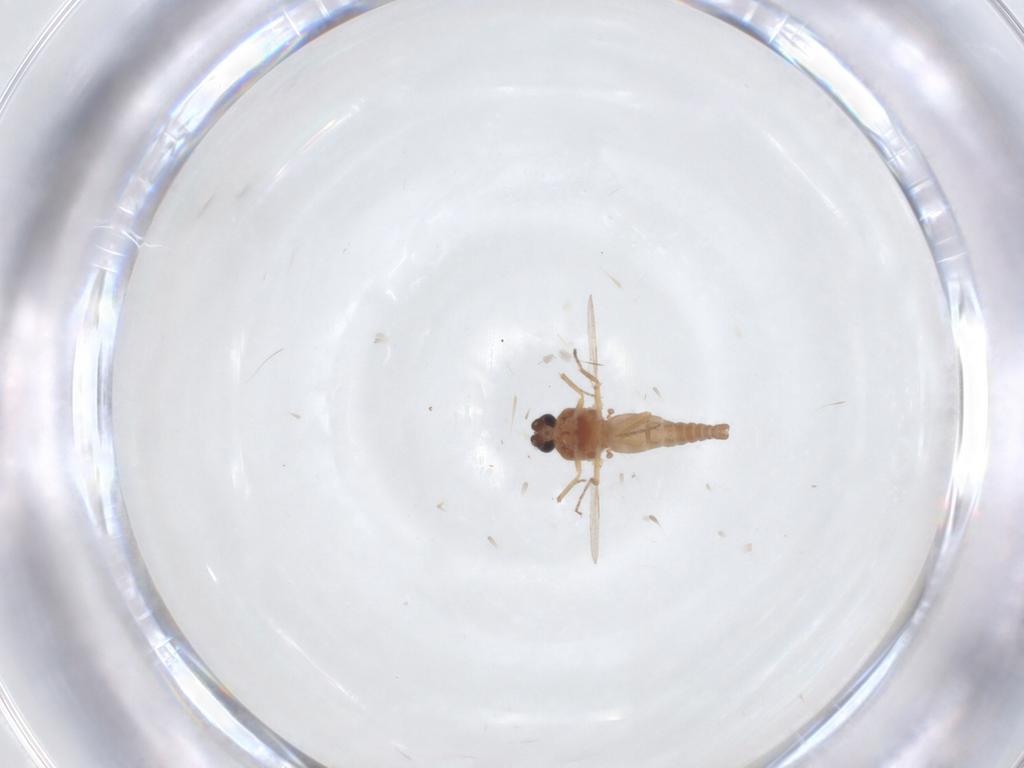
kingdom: Animalia
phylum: Arthropoda
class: Insecta
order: Diptera
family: Ceratopogonidae
